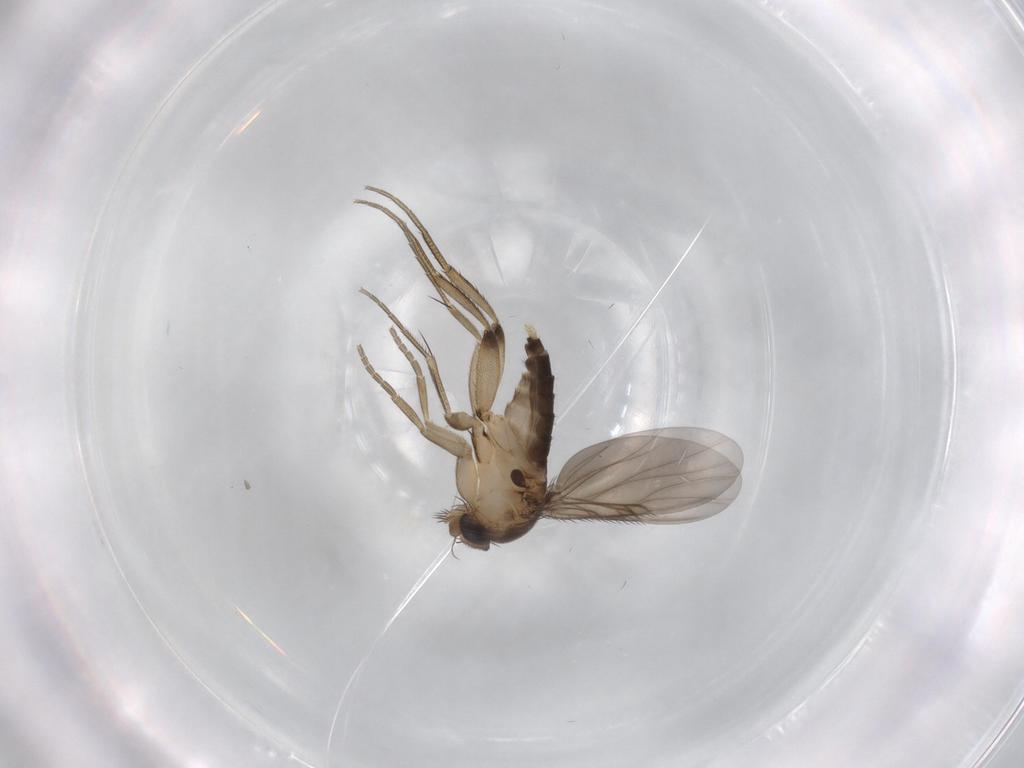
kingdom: Animalia
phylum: Arthropoda
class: Insecta
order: Diptera
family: Phoridae
